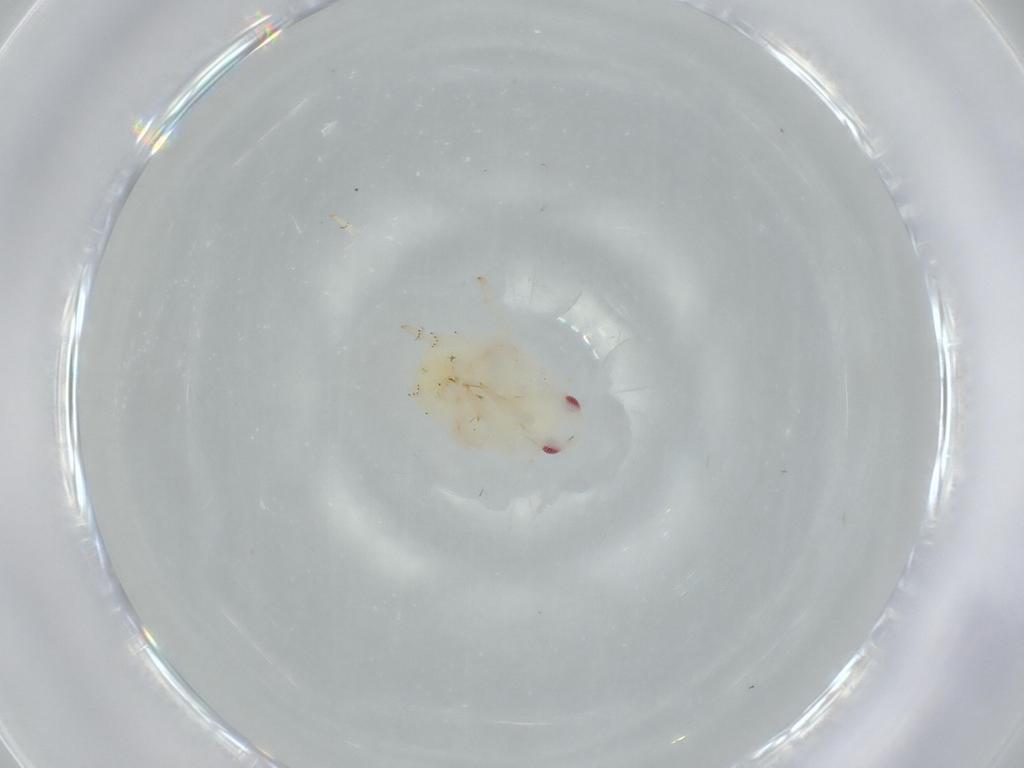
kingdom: Animalia
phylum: Arthropoda
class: Insecta
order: Hemiptera
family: Flatidae
